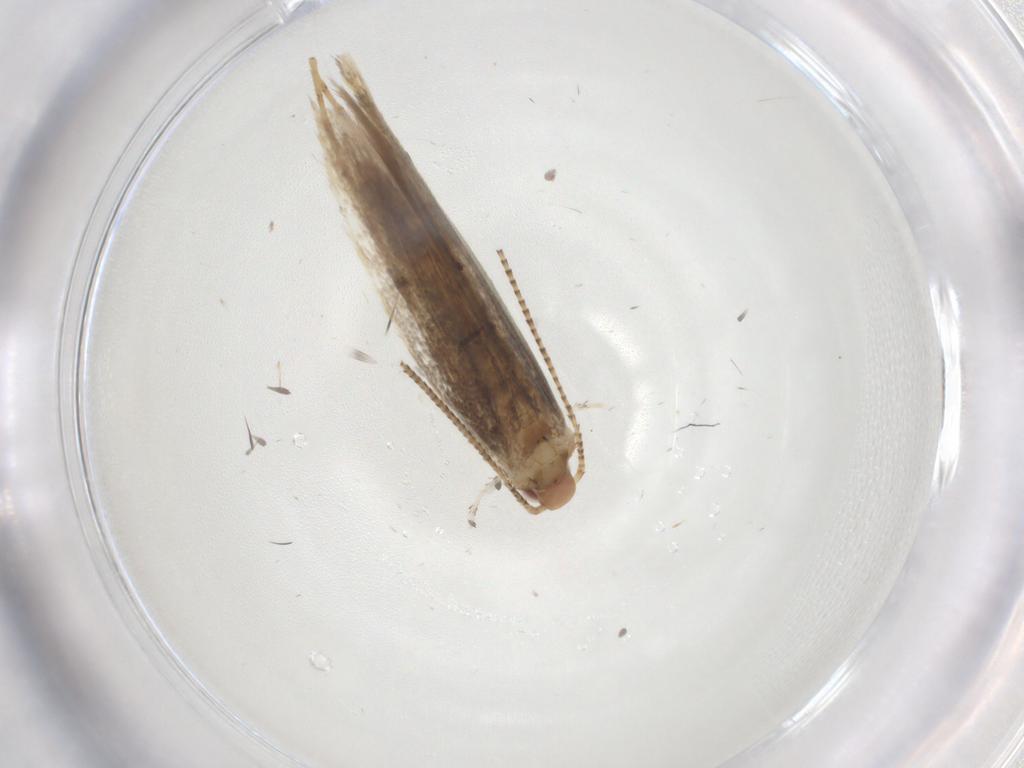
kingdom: Animalia
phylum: Arthropoda
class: Insecta
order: Lepidoptera
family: Gracillariidae
